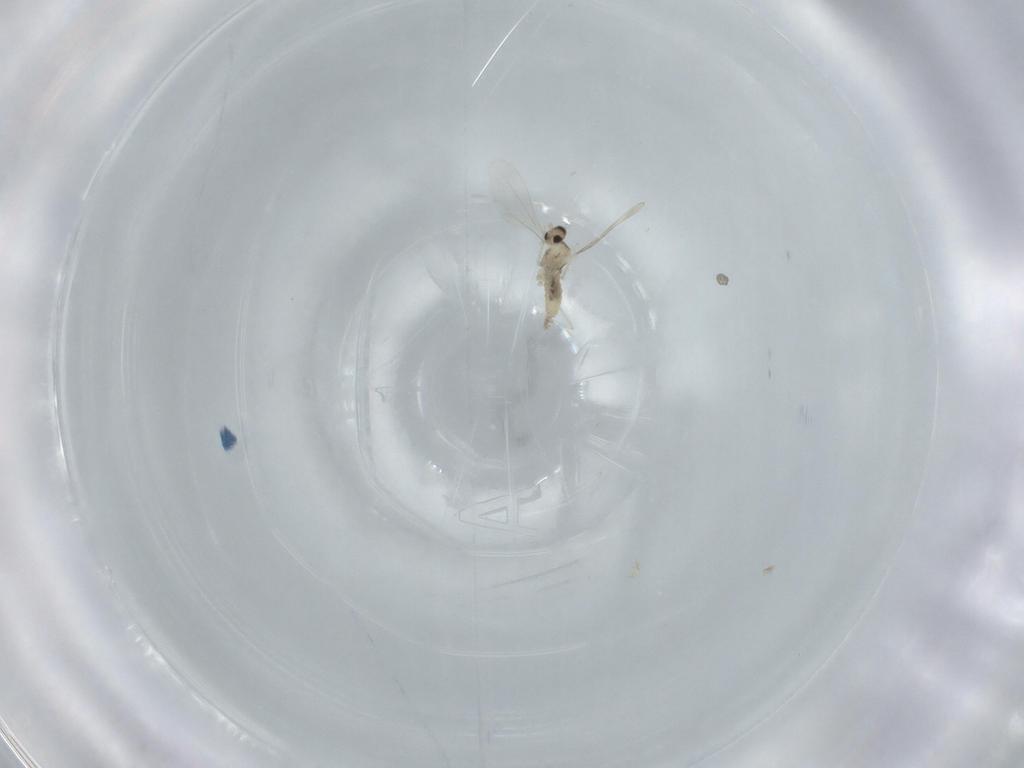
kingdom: Animalia
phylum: Arthropoda
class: Insecta
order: Diptera
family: Cecidomyiidae
